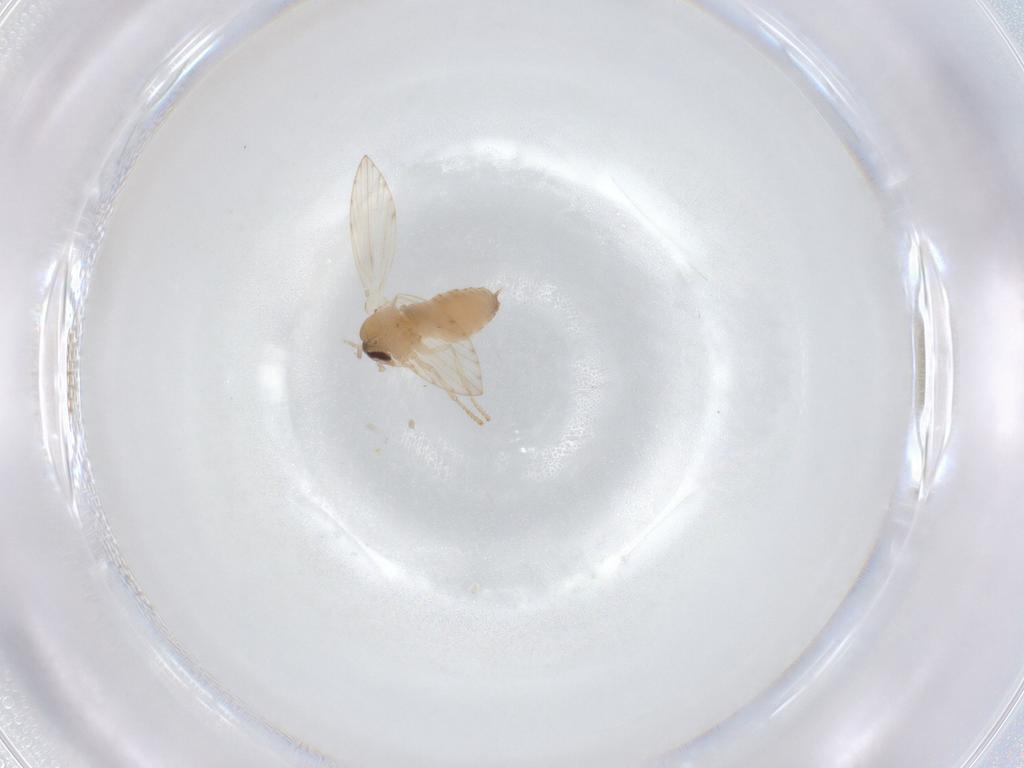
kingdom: Animalia
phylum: Arthropoda
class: Insecta
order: Diptera
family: Psychodidae
